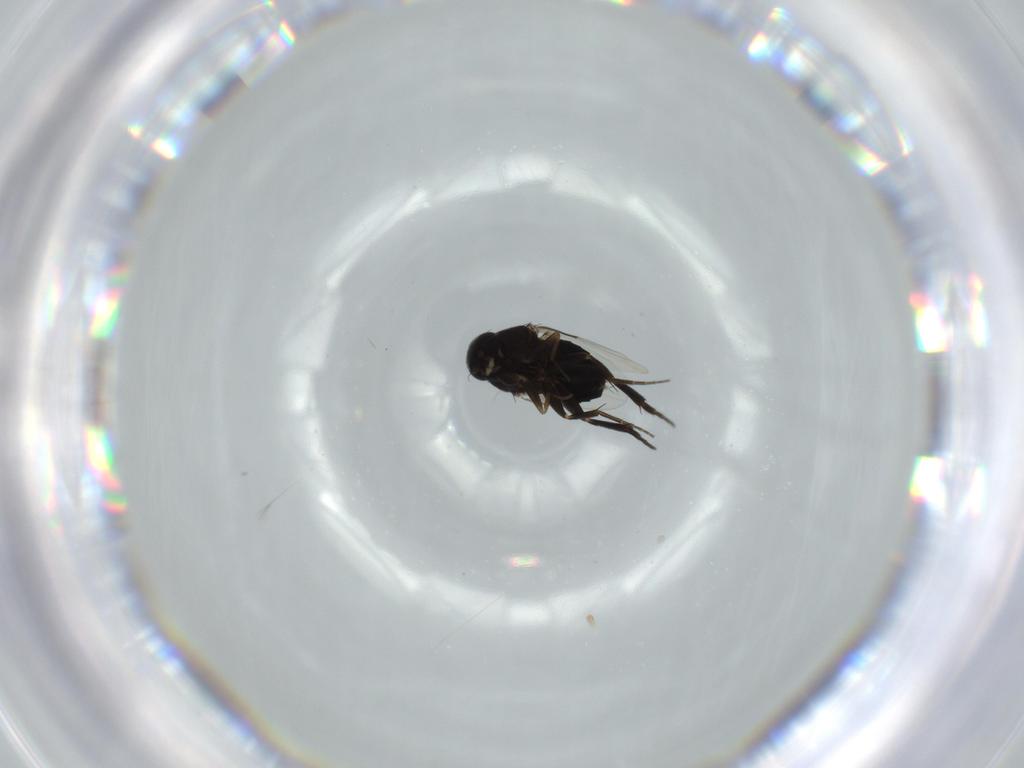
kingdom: Animalia
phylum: Arthropoda
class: Insecta
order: Diptera
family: Phoridae
